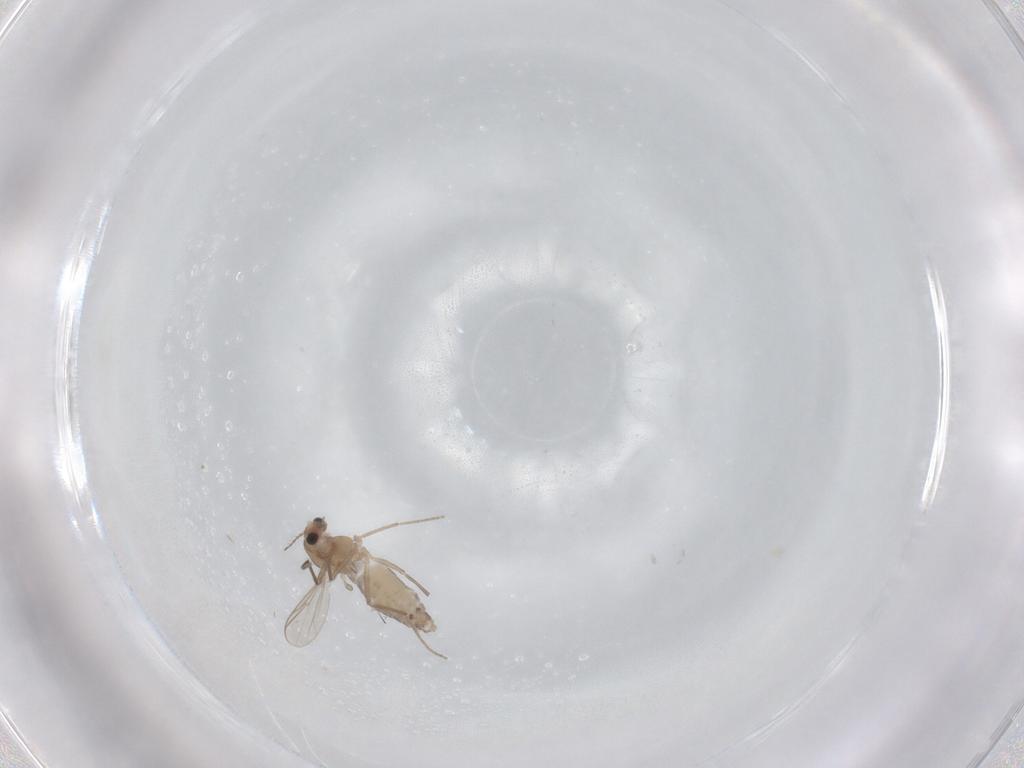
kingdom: Animalia
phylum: Arthropoda
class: Insecta
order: Diptera
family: Chironomidae
